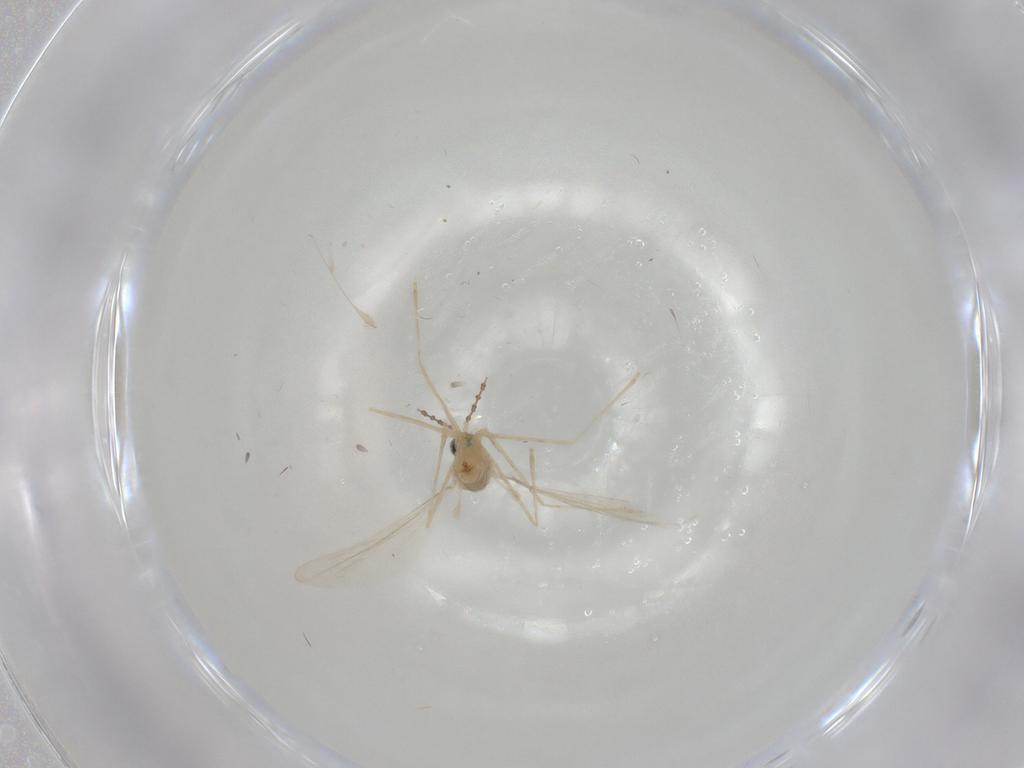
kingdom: Animalia
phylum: Arthropoda
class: Insecta
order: Diptera
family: Cecidomyiidae
